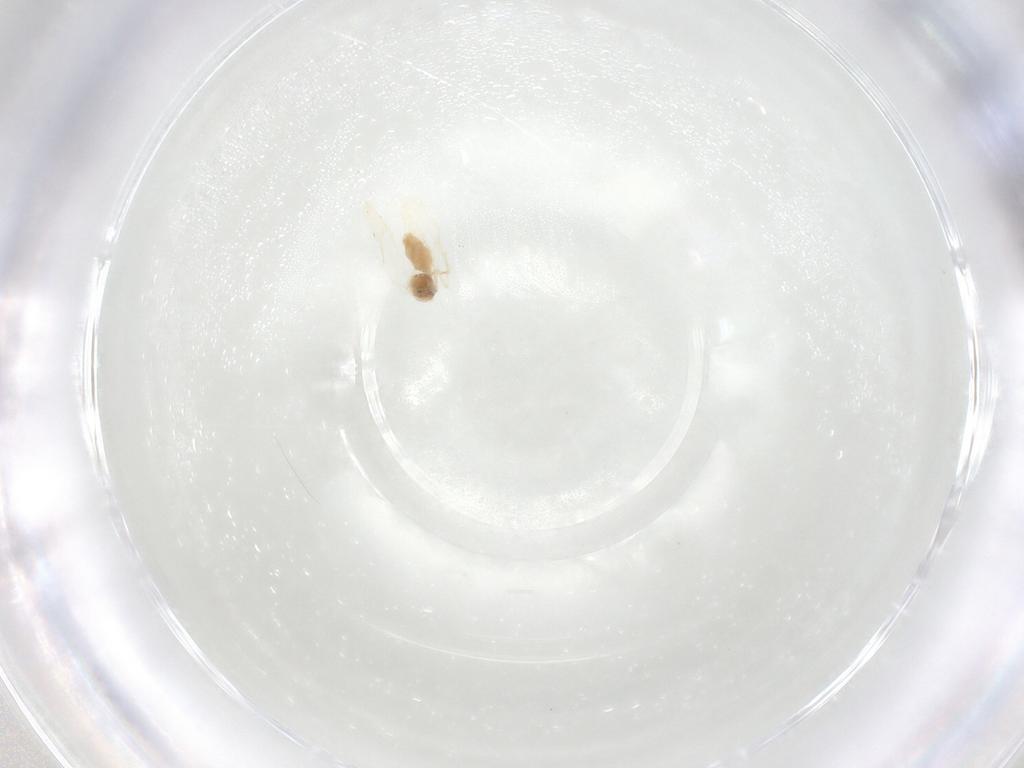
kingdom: Animalia
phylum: Arthropoda
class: Insecta
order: Hemiptera
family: Aleyrodidae
